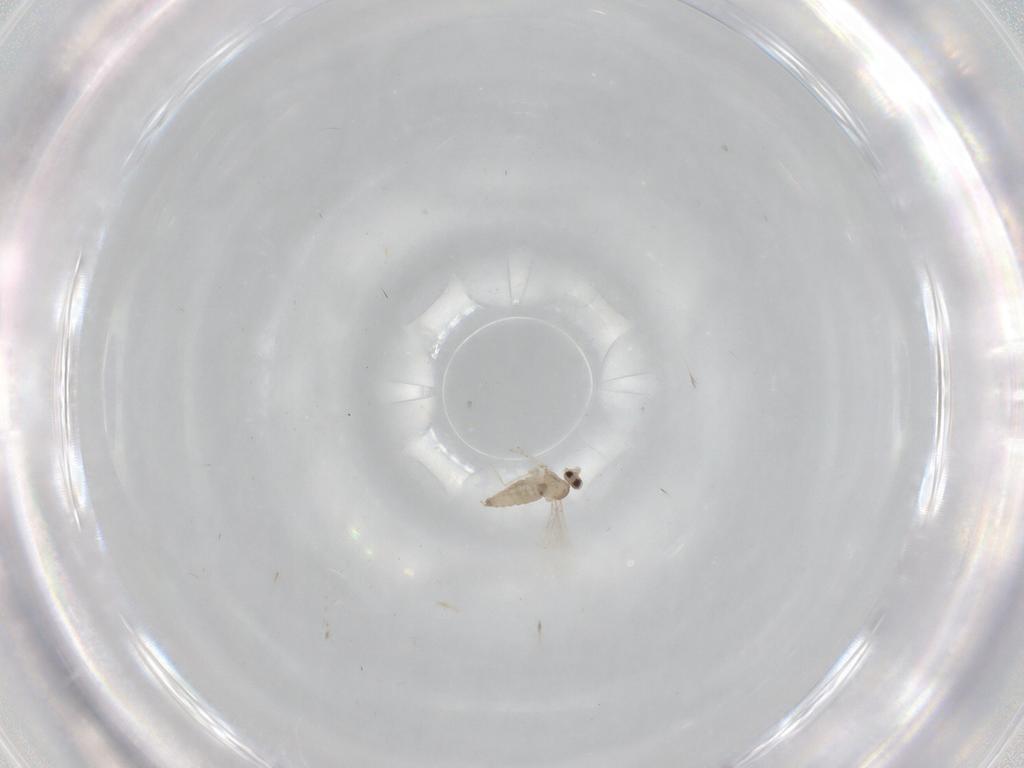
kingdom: Animalia
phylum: Arthropoda
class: Insecta
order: Diptera
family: Cecidomyiidae
